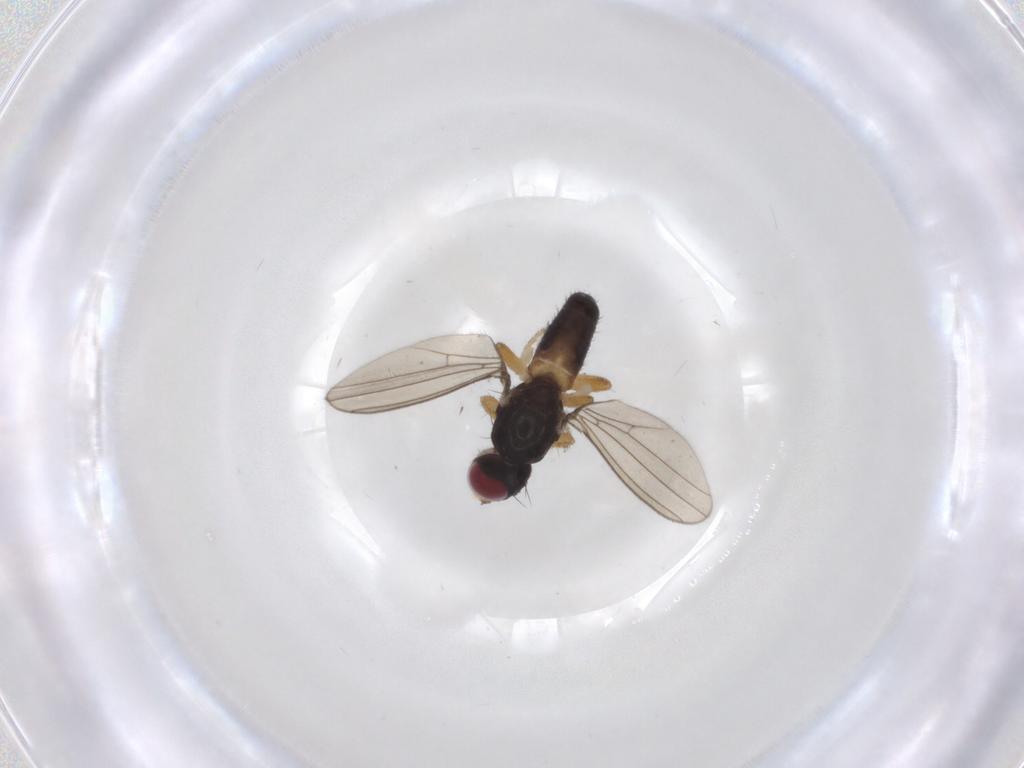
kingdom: Animalia
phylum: Arthropoda
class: Insecta
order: Diptera
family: Anthomyzidae
